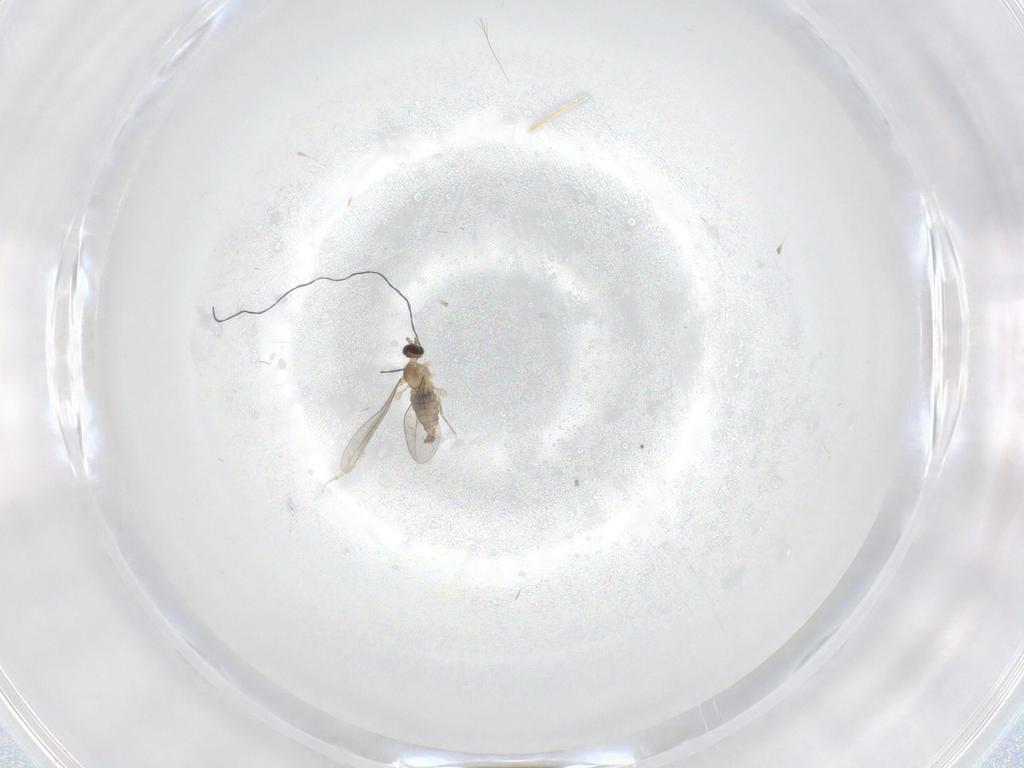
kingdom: Animalia
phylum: Arthropoda
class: Insecta
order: Diptera
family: Cecidomyiidae
